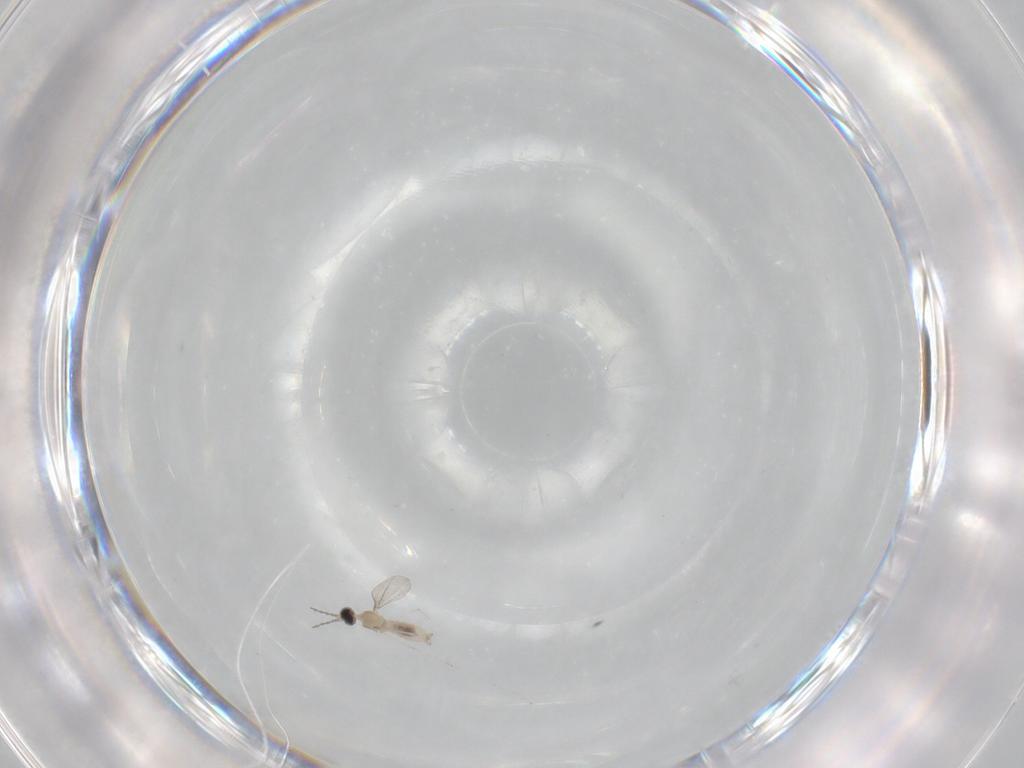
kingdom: Animalia
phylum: Arthropoda
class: Insecta
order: Diptera
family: Cecidomyiidae
